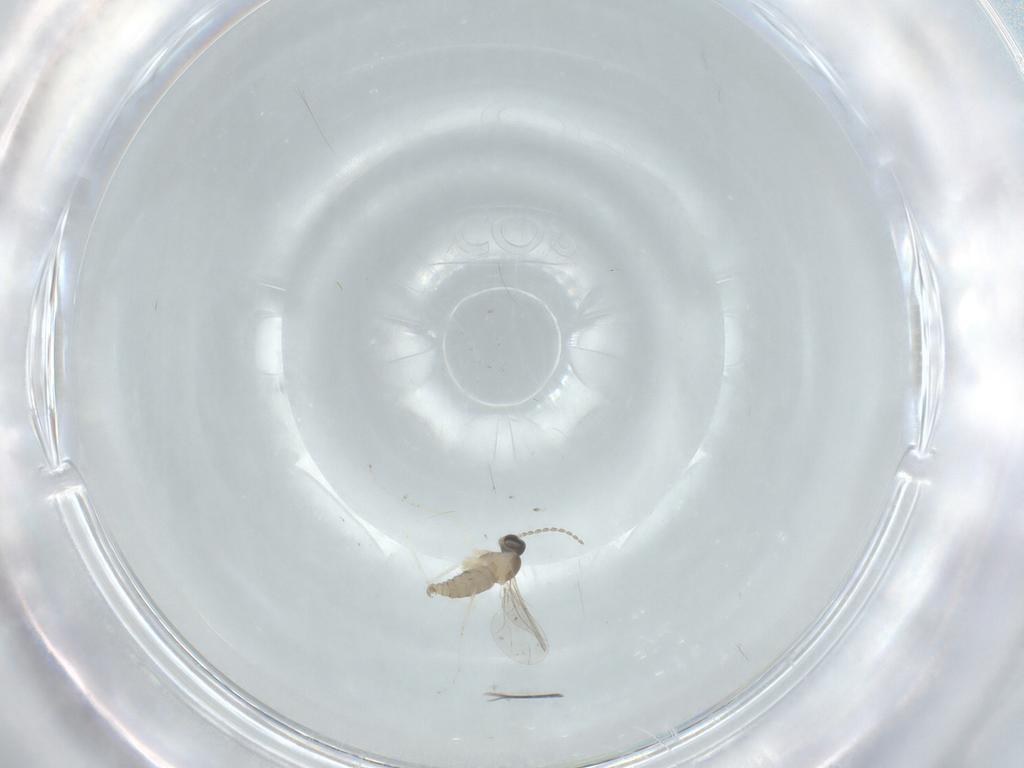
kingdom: Animalia
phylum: Arthropoda
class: Insecta
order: Diptera
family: Cecidomyiidae
